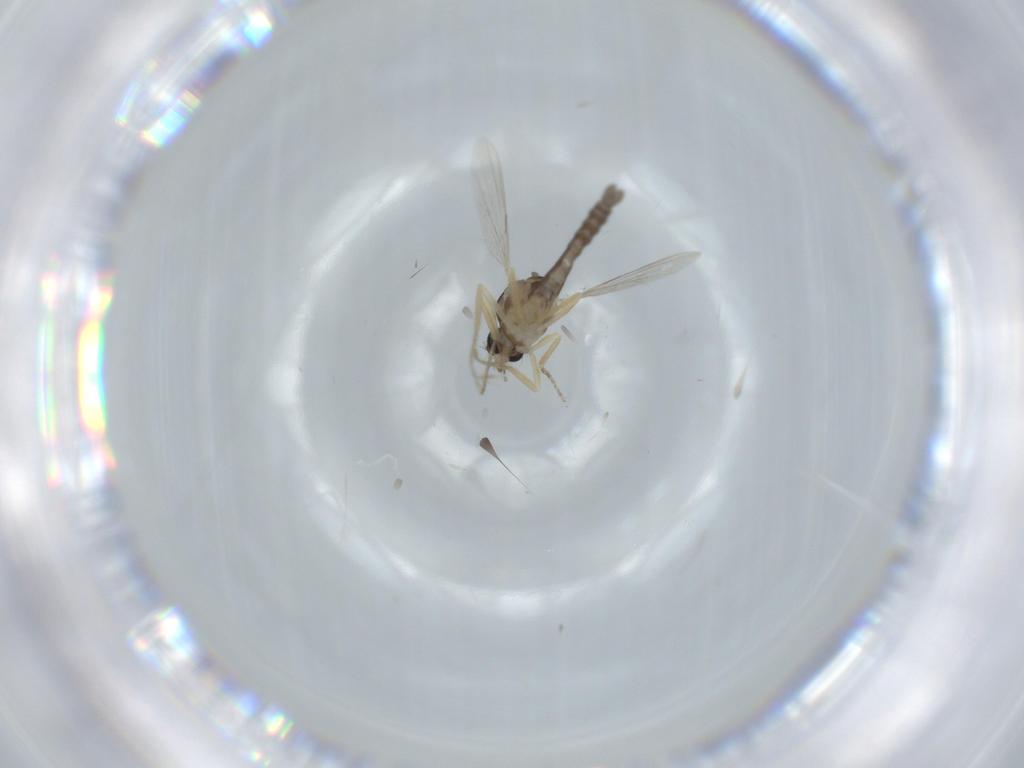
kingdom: Animalia
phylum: Arthropoda
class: Insecta
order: Diptera
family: Ceratopogonidae
